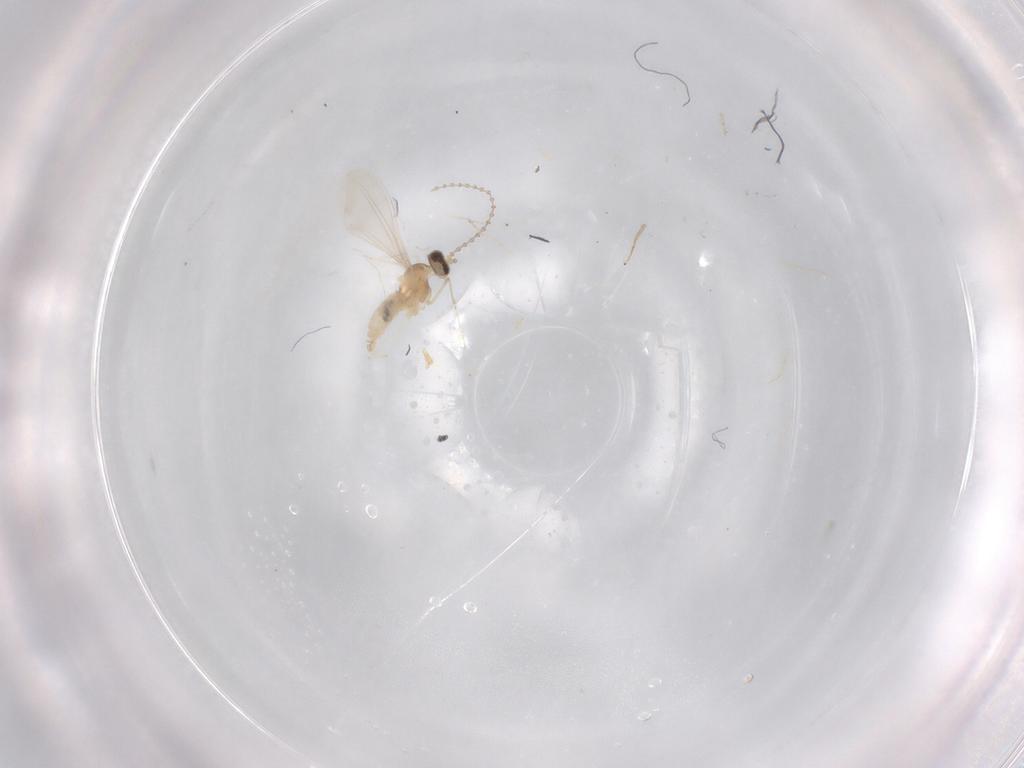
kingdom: Animalia
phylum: Arthropoda
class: Insecta
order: Diptera
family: Cecidomyiidae
